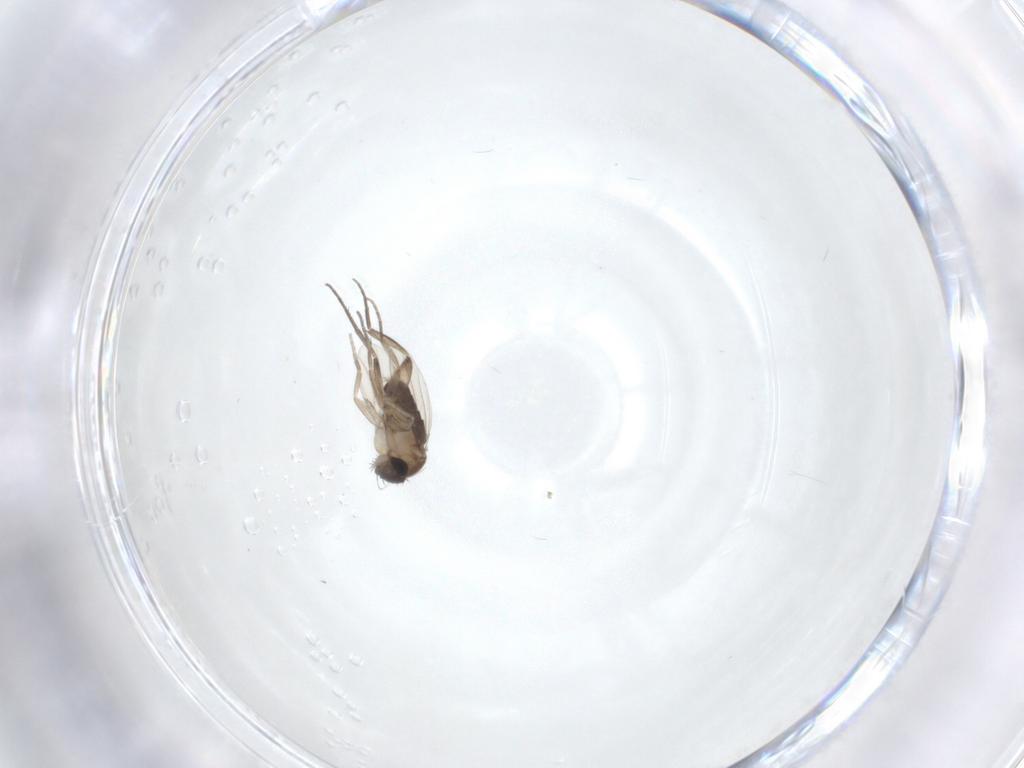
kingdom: Animalia
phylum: Arthropoda
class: Insecta
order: Diptera
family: Phoridae
